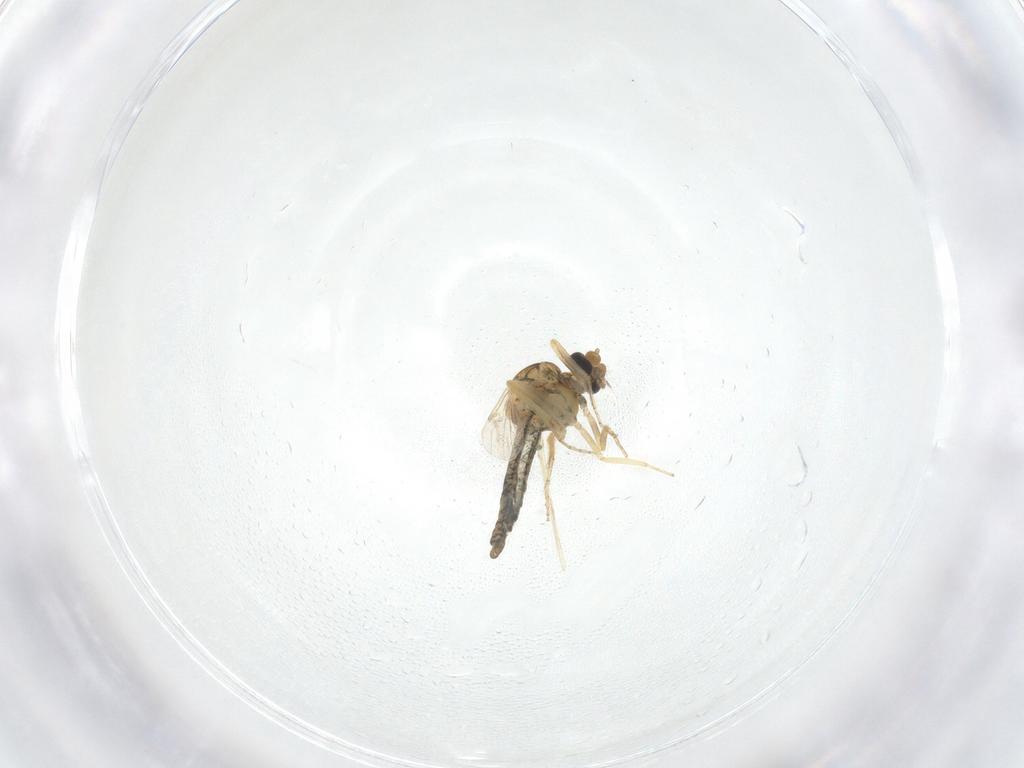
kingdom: Animalia
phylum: Arthropoda
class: Insecta
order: Diptera
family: Ceratopogonidae
